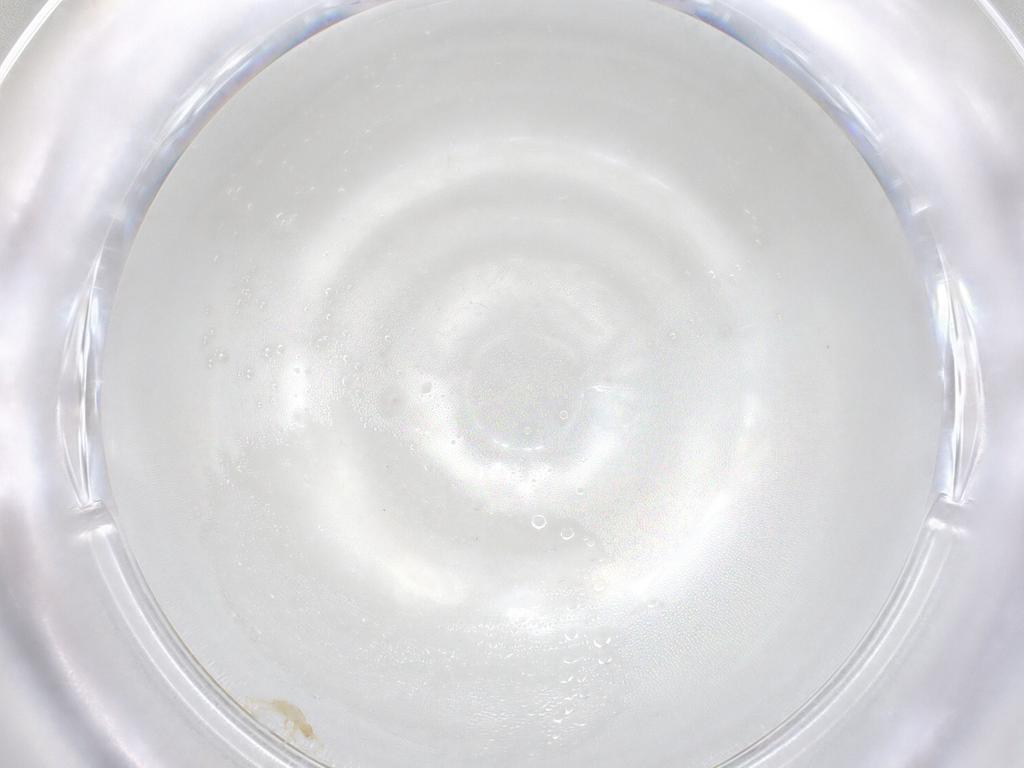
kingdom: Animalia
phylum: Arthropoda
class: Arachnida
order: Trombidiformes
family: Erythraeidae
